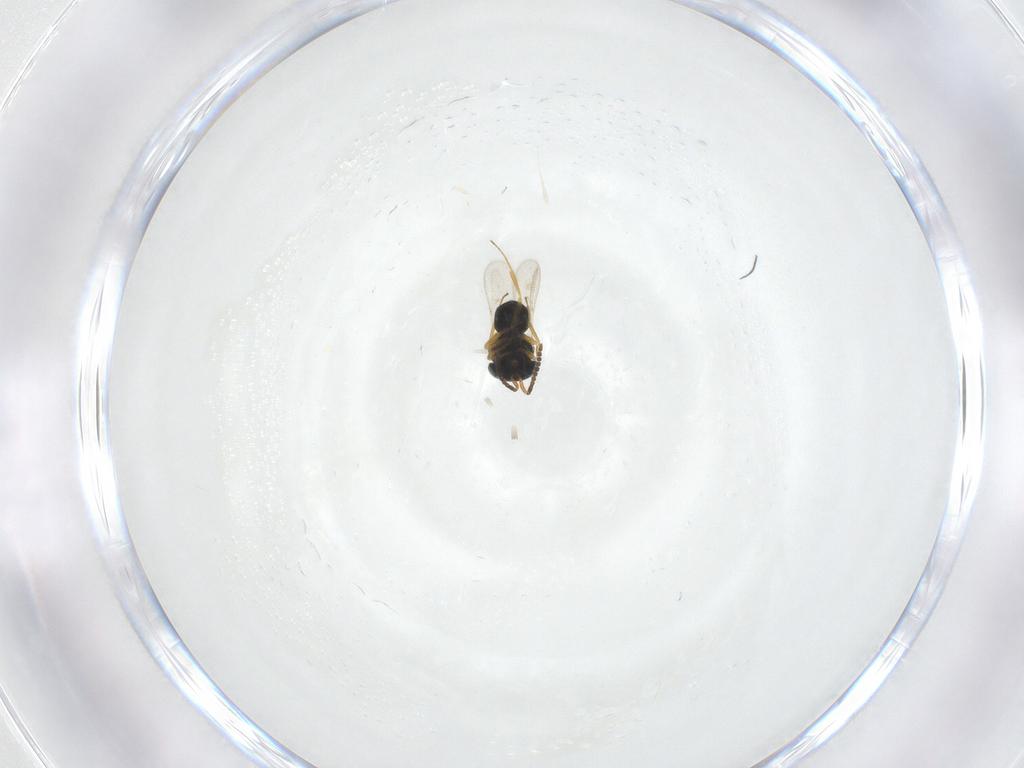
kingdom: Animalia
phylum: Arthropoda
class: Insecta
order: Hymenoptera
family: Scelionidae
